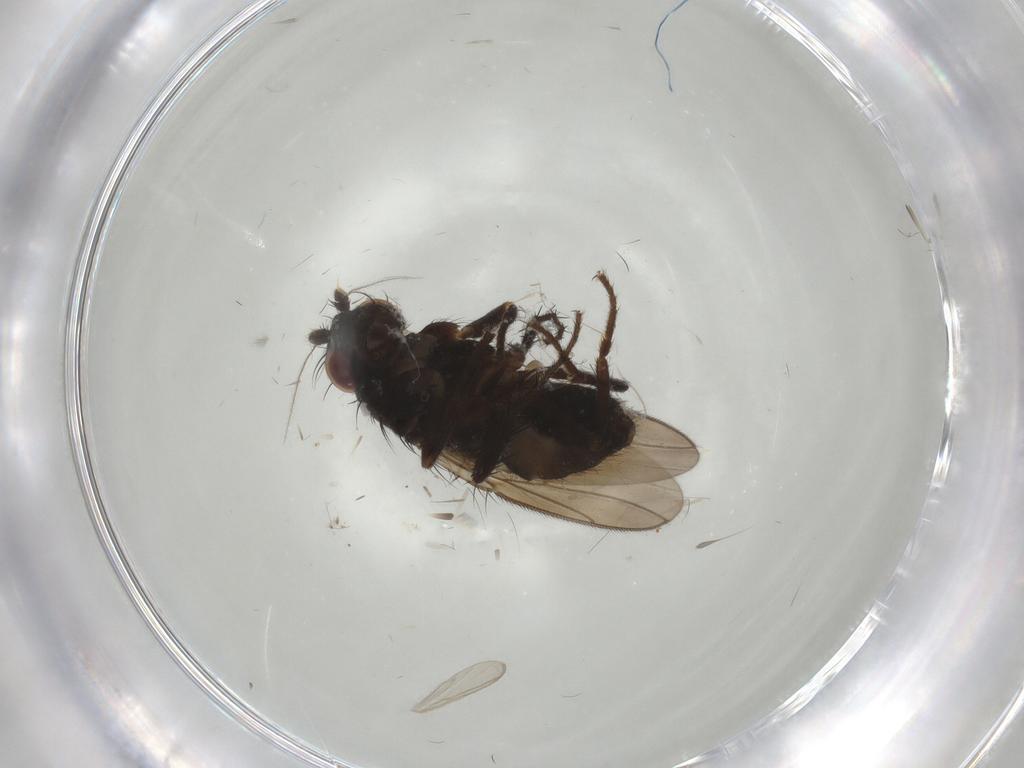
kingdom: Animalia
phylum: Arthropoda
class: Insecta
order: Diptera
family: Sphaeroceridae
